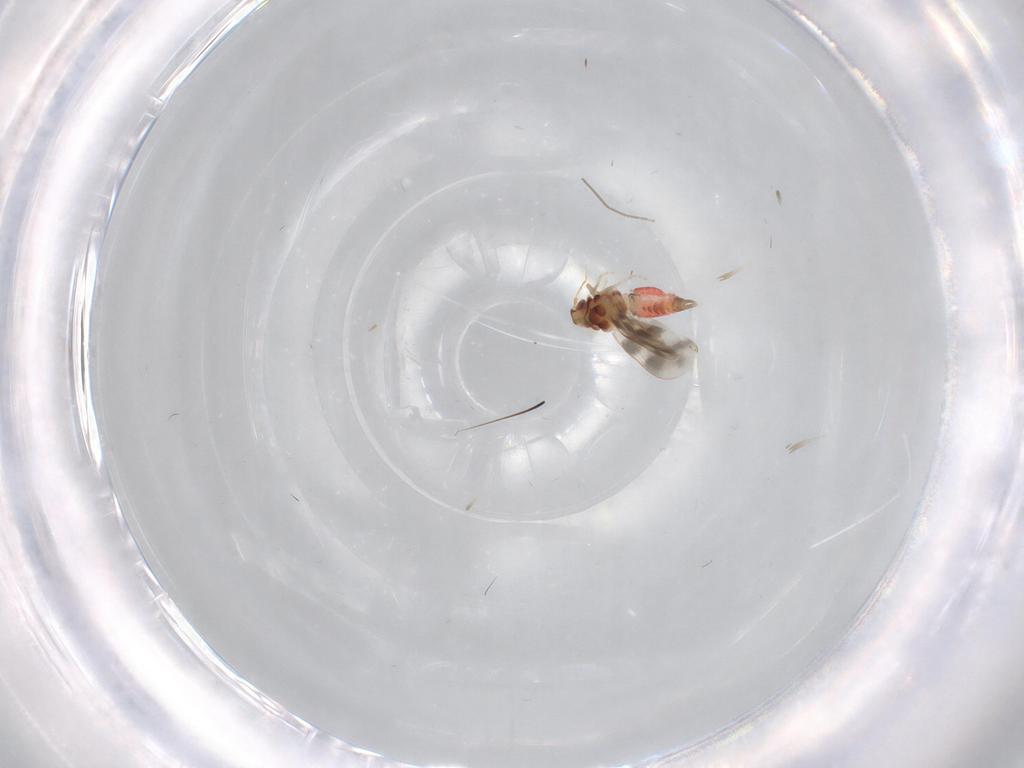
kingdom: Animalia
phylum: Arthropoda
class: Insecta
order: Hemiptera
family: Aleyrodidae
